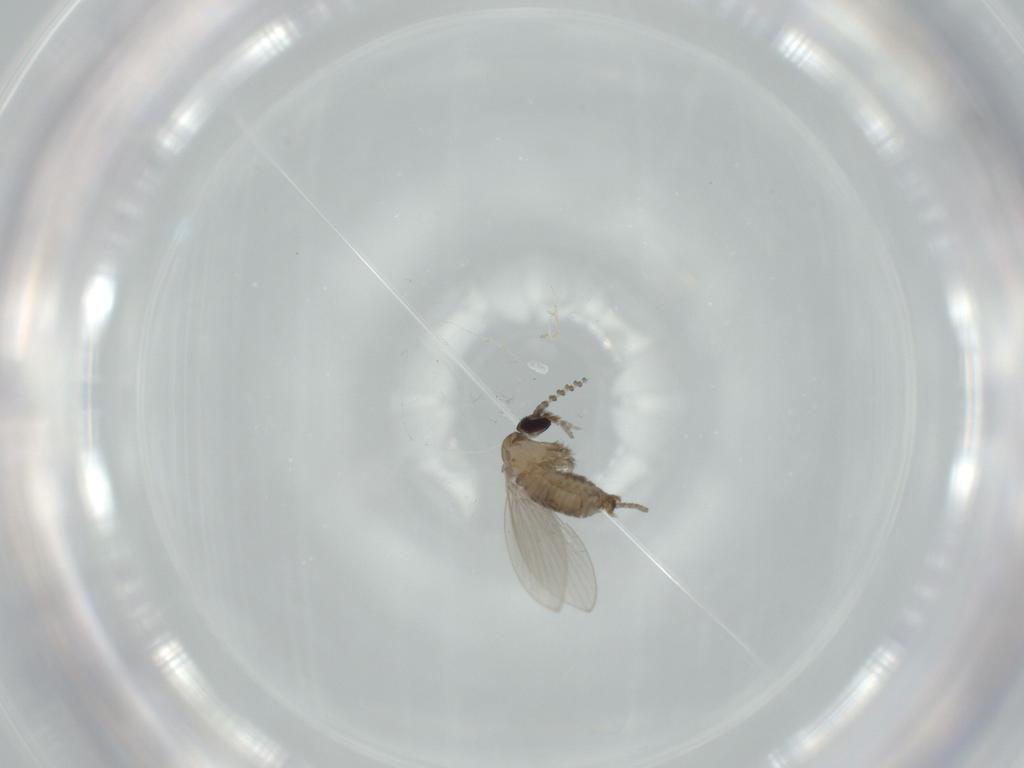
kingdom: Animalia
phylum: Arthropoda
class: Insecta
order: Diptera
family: Psychodidae
